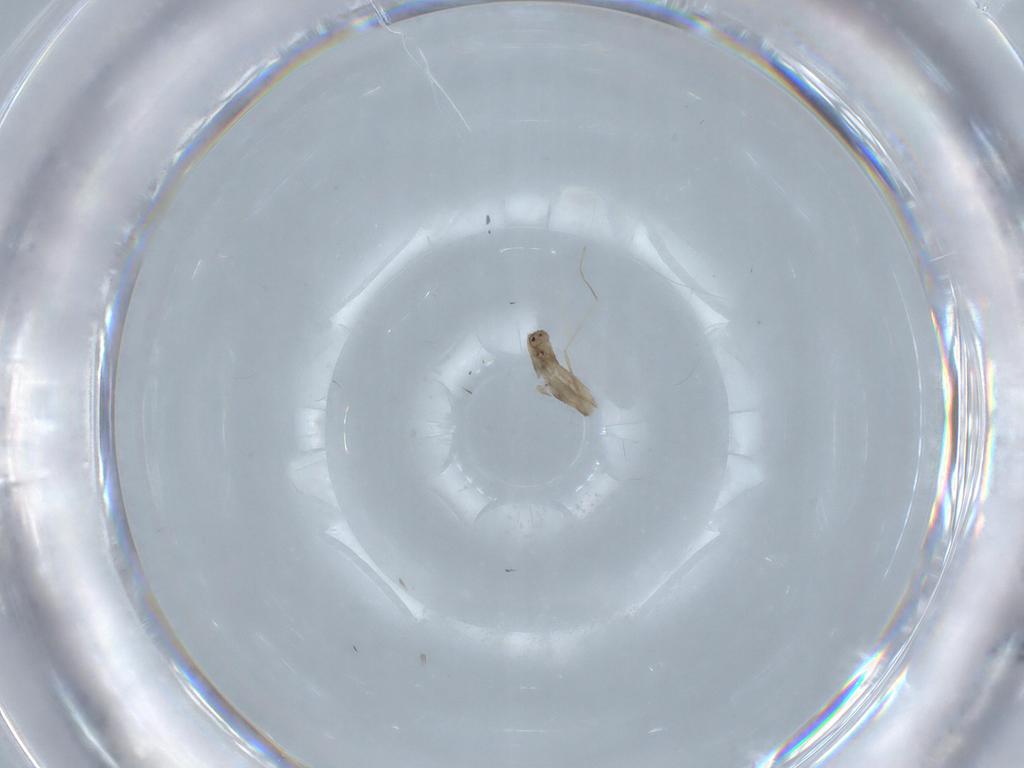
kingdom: Animalia
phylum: Arthropoda
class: Collembola
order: Entomobryomorpha
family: Entomobryidae
